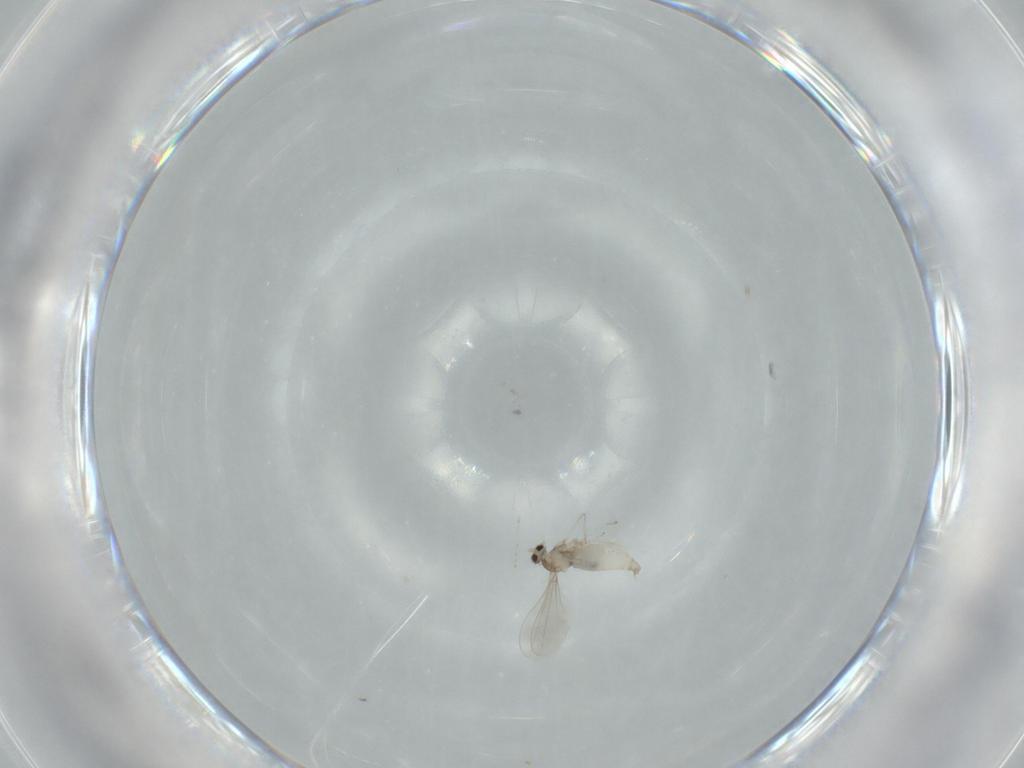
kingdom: Animalia
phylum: Arthropoda
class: Insecta
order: Diptera
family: Cecidomyiidae
